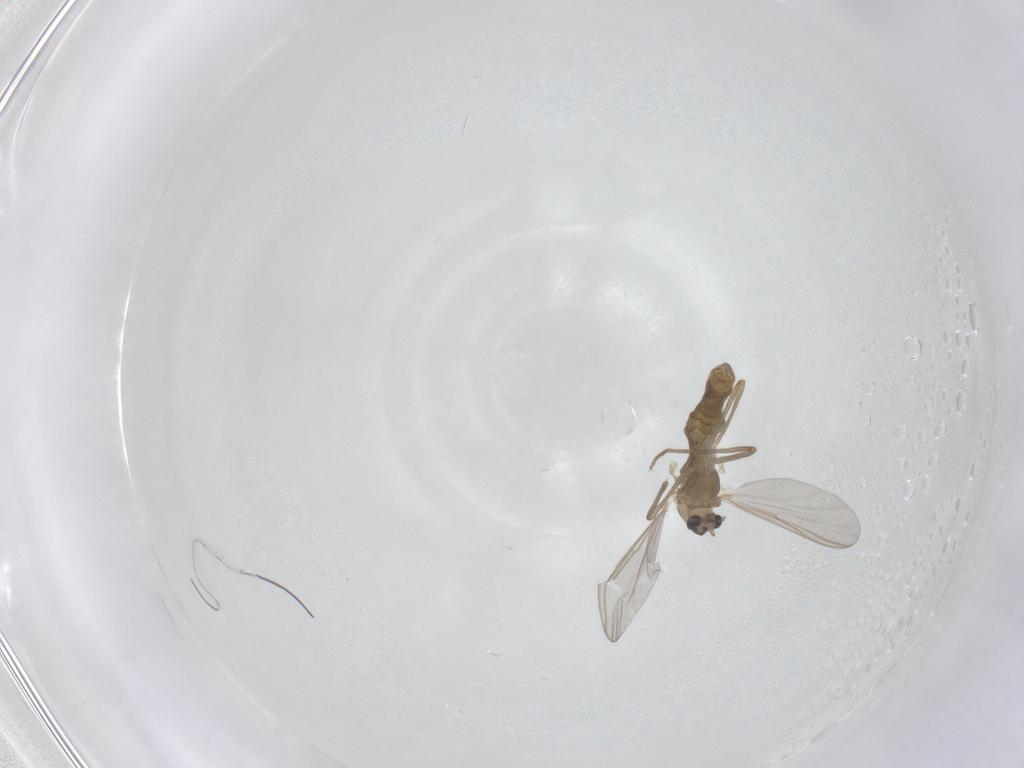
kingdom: Animalia
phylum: Arthropoda
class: Insecta
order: Diptera
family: Chironomidae
